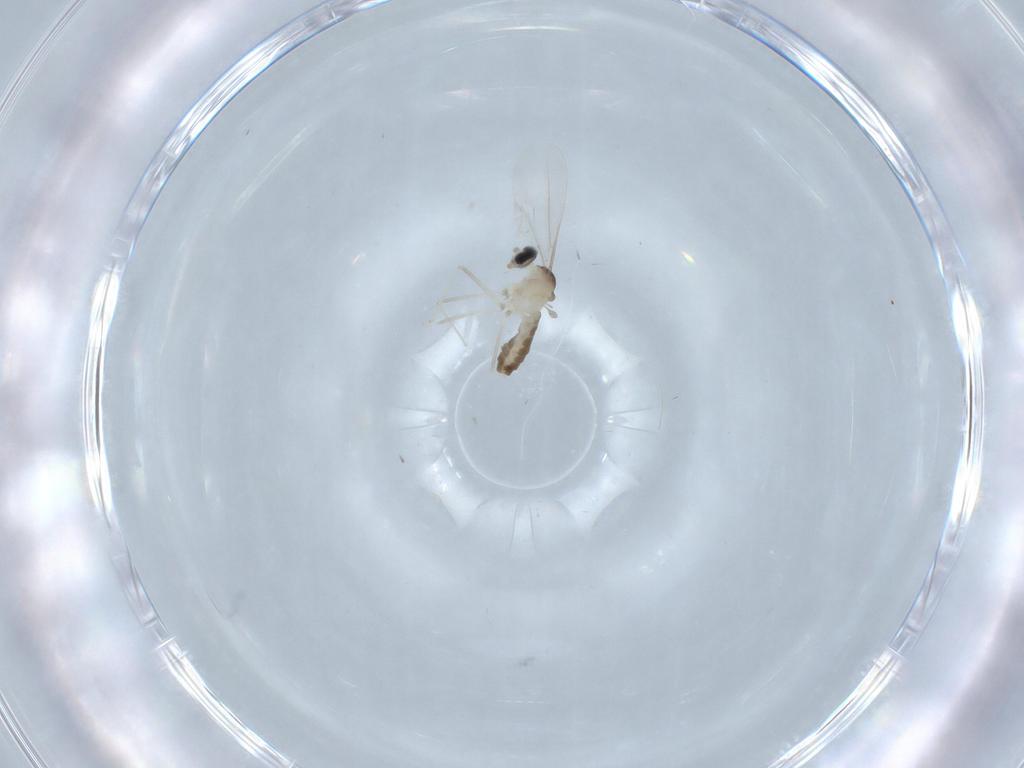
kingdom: Animalia
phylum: Arthropoda
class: Insecta
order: Diptera
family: Cecidomyiidae
